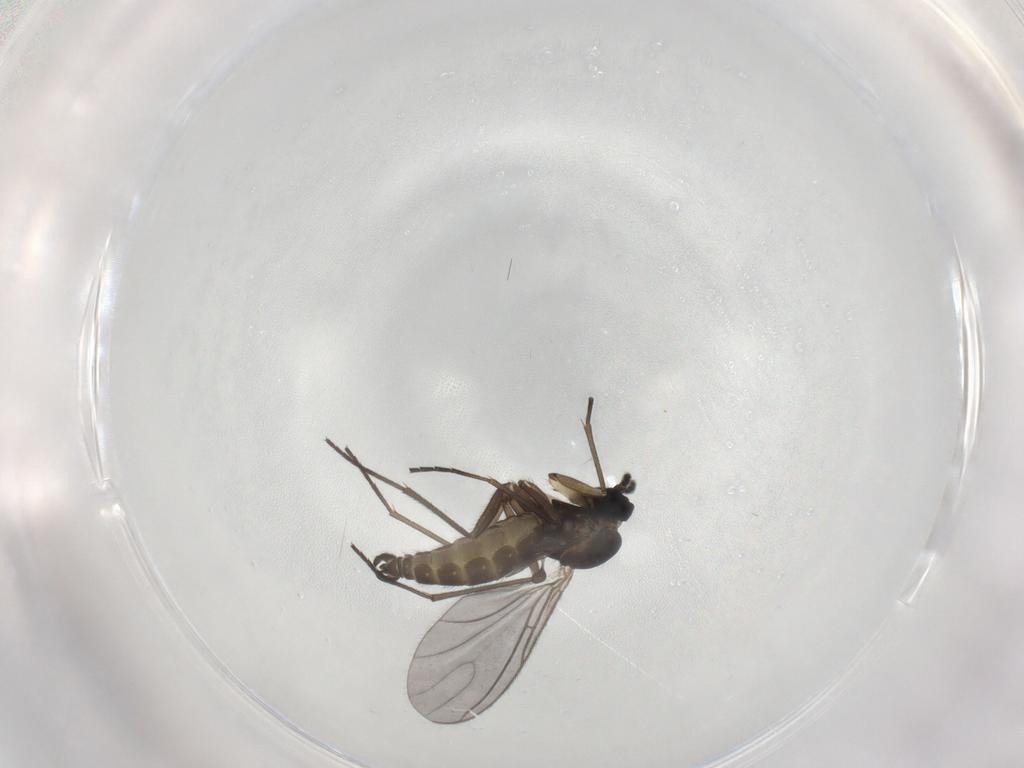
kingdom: Animalia
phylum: Arthropoda
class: Insecta
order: Diptera
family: Sciaridae
